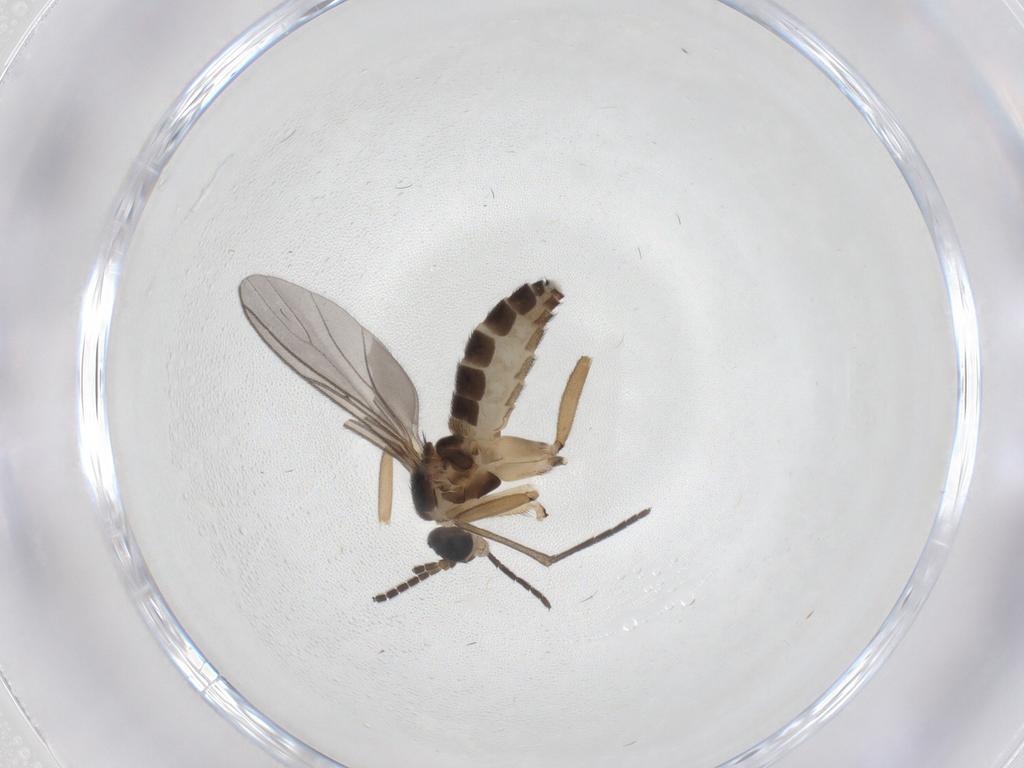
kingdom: Animalia
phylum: Arthropoda
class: Insecta
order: Diptera
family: Sciaridae
